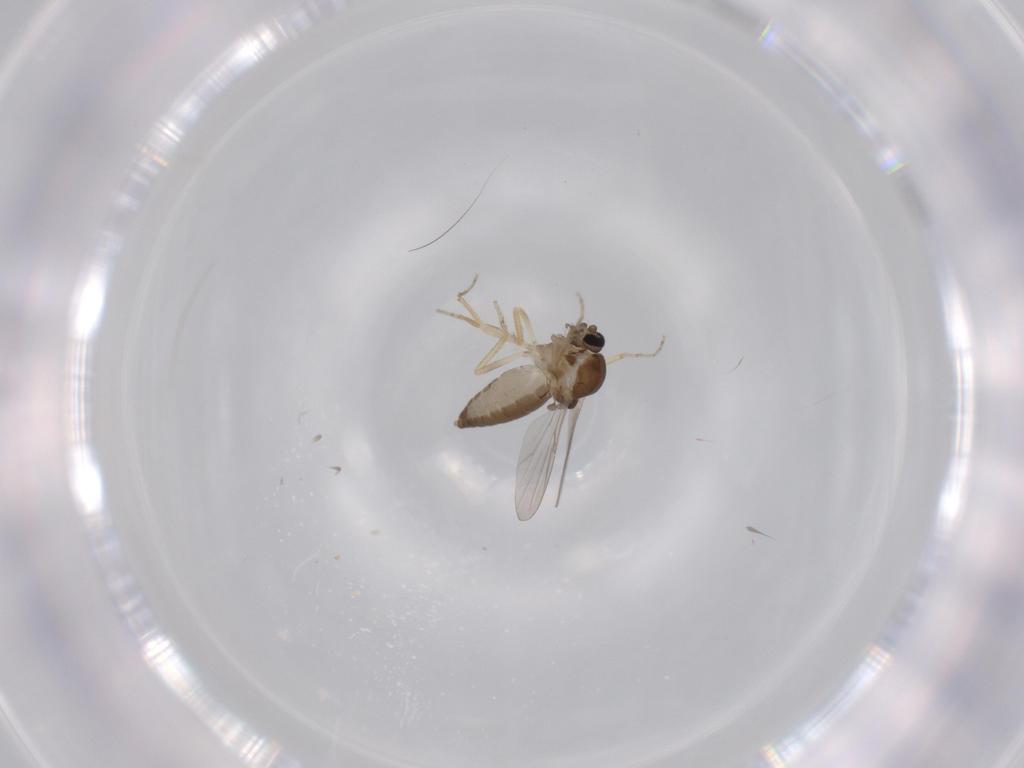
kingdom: Animalia
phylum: Arthropoda
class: Insecta
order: Diptera
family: Ceratopogonidae
